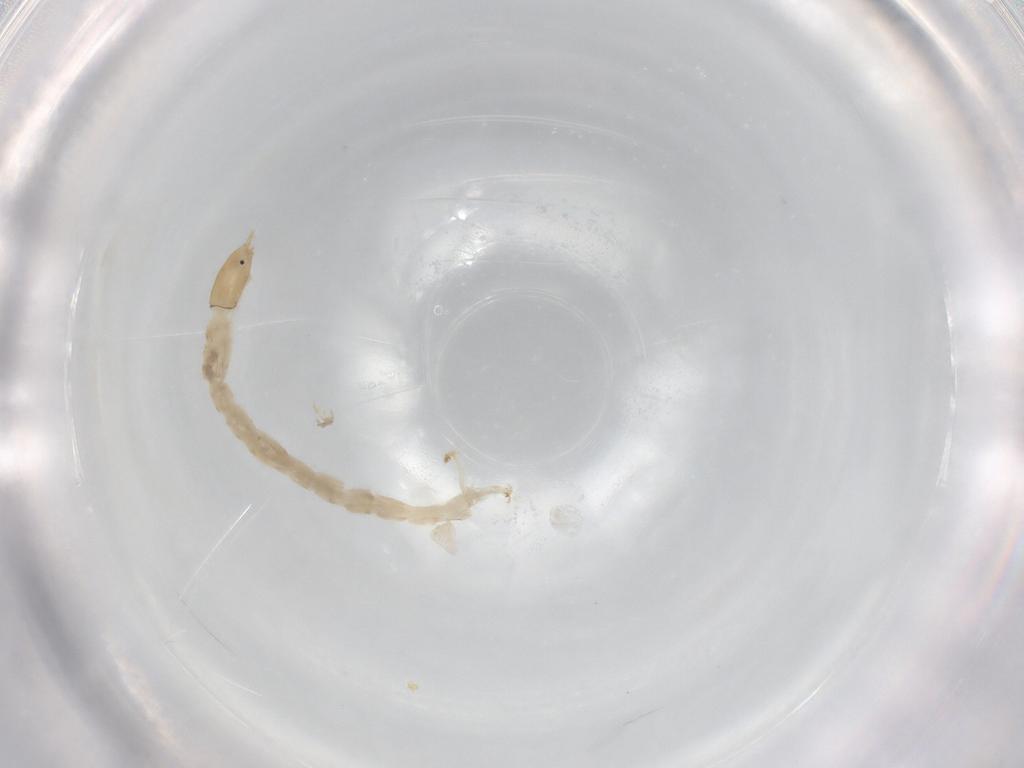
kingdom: Animalia
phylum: Arthropoda
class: Insecta
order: Diptera
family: Chironomidae
